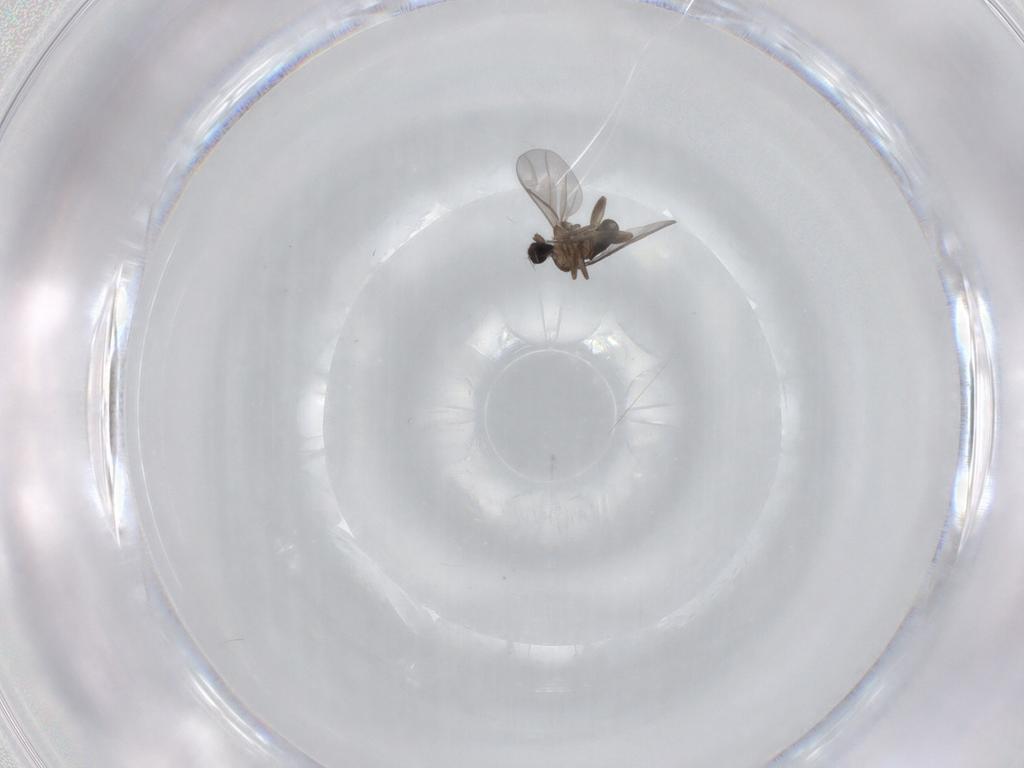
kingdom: Animalia
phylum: Arthropoda
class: Insecta
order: Diptera
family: Phoridae
